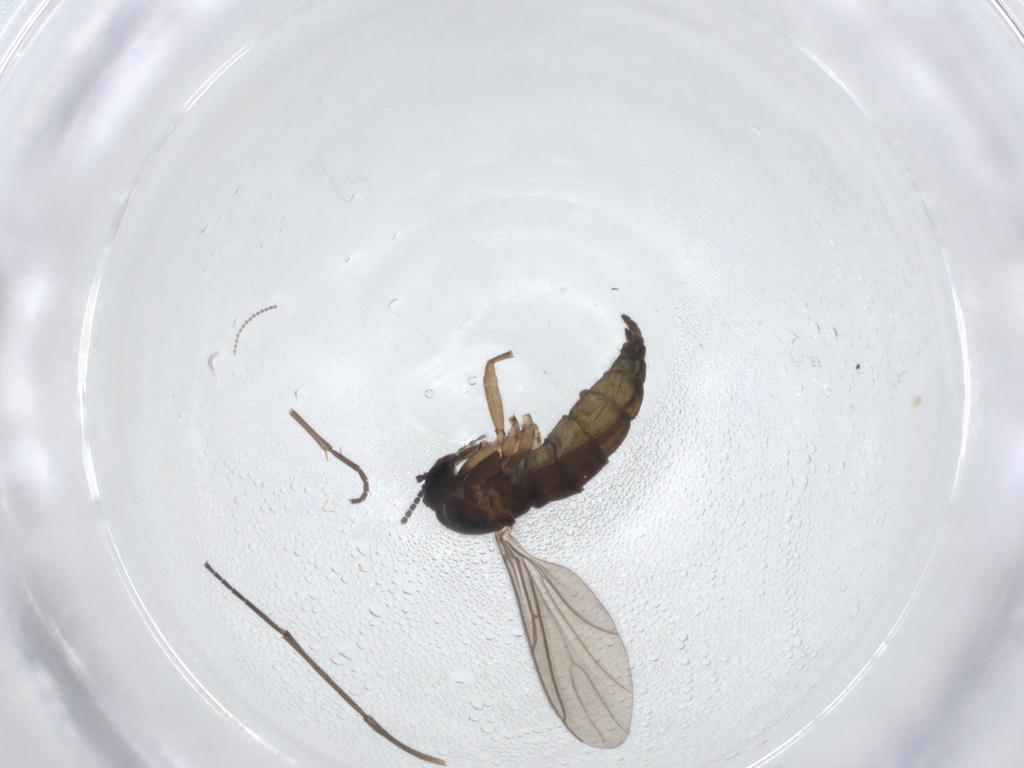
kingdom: Animalia
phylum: Arthropoda
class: Insecta
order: Diptera
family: Sciaridae
